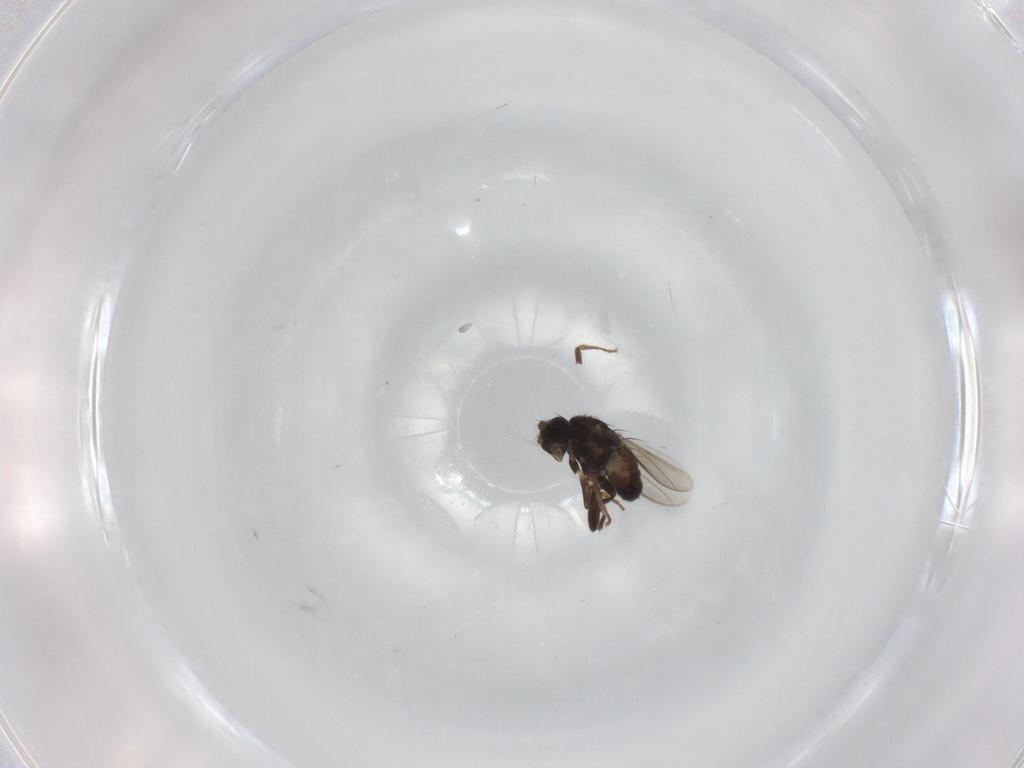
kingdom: Animalia
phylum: Arthropoda
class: Insecta
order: Diptera
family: Sphaeroceridae
